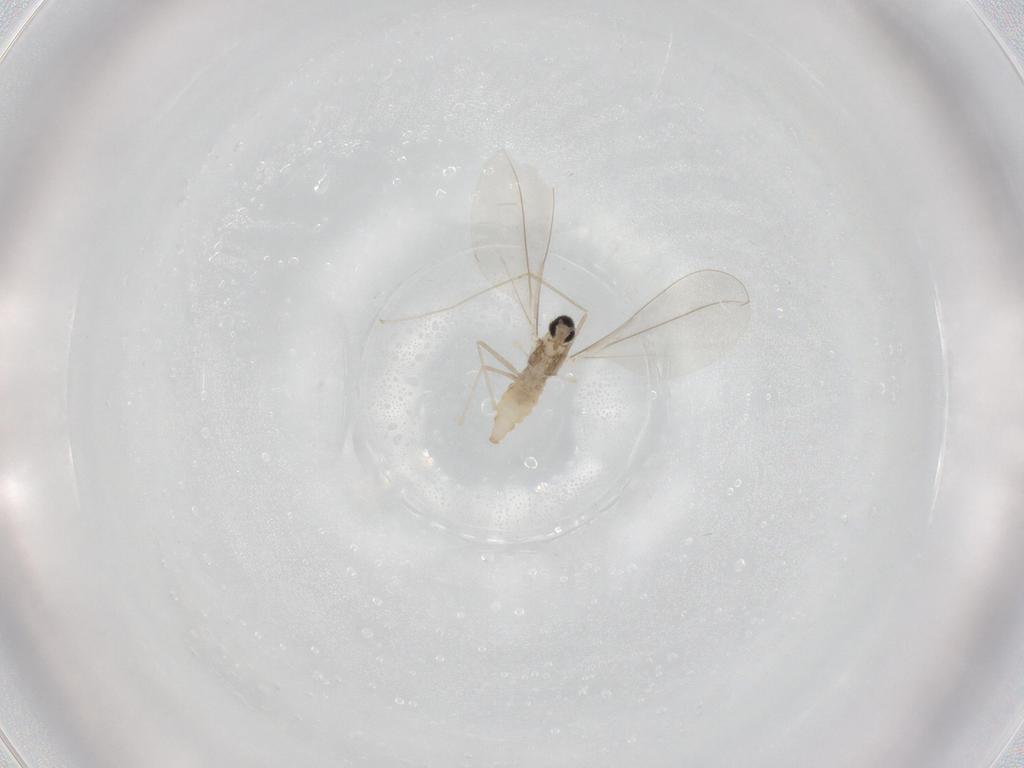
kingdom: Animalia
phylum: Arthropoda
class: Insecta
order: Diptera
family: Cecidomyiidae
